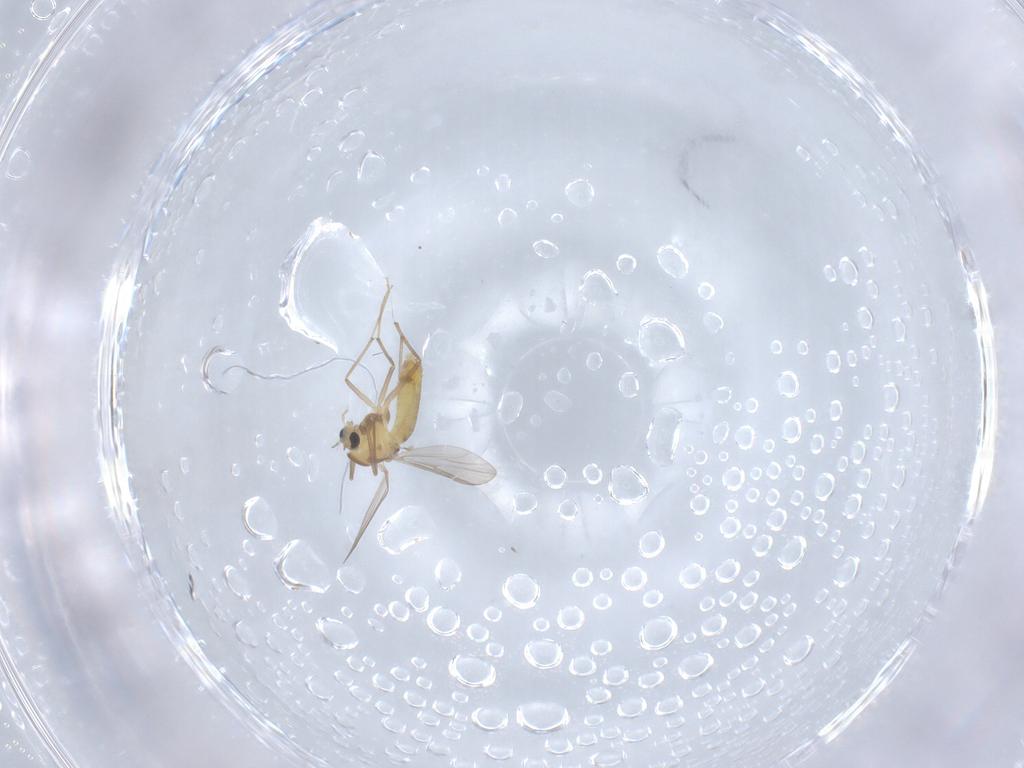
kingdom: Animalia
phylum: Arthropoda
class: Insecta
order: Diptera
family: Chironomidae
